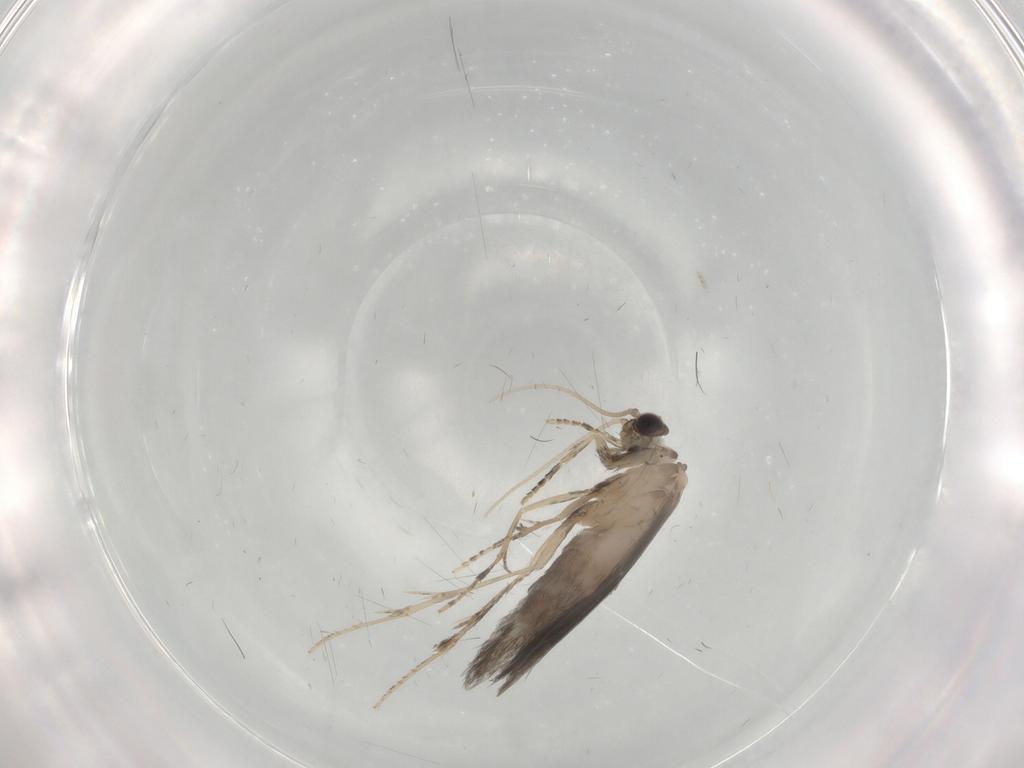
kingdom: Animalia
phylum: Arthropoda
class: Insecta
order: Trichoptera
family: Hydroptilidae
